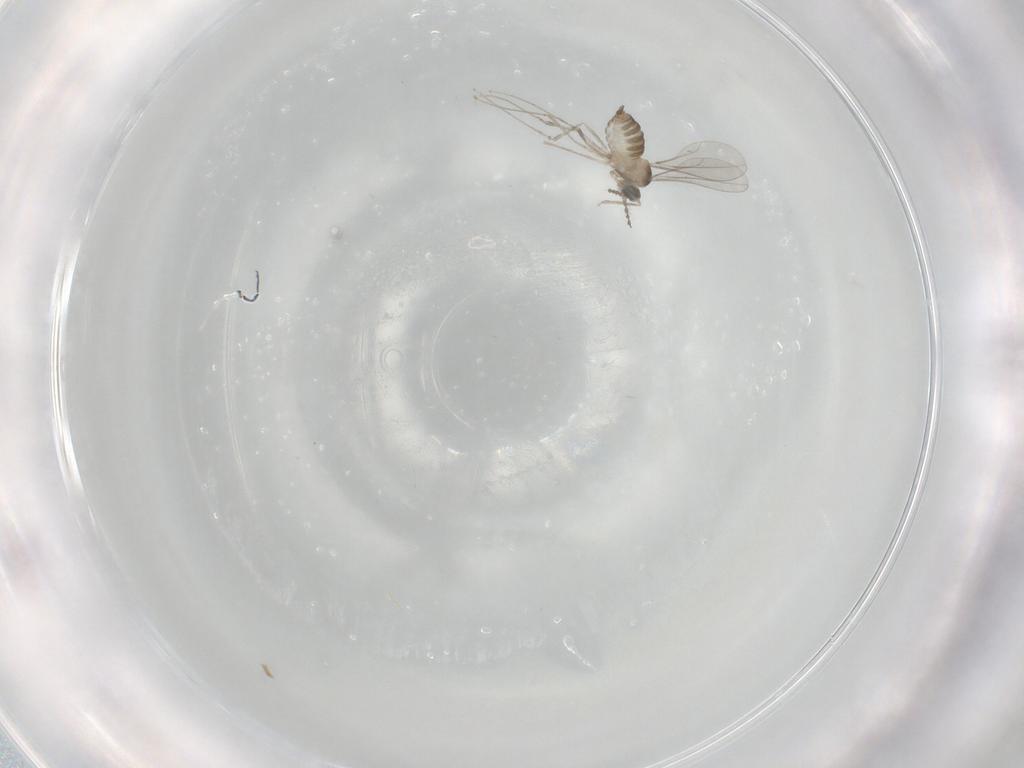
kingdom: Animalia
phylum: Arthropoda
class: Insecta
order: Diptera
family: Cecidomyiidae
